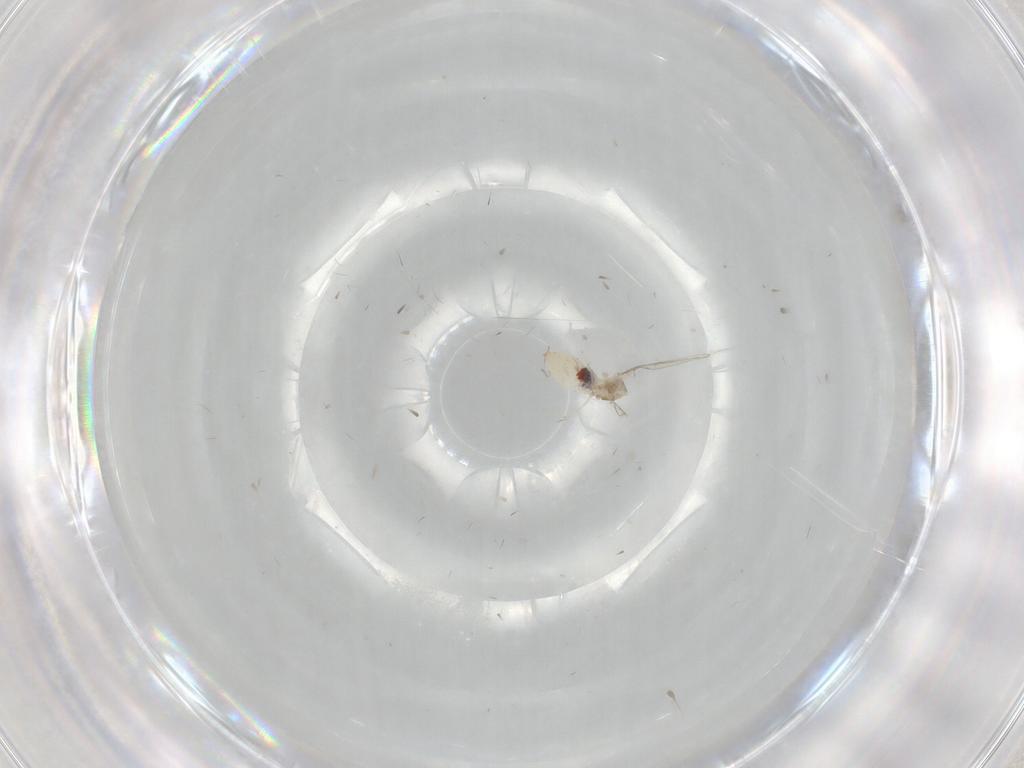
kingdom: Animalia
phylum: Arthropoda
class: Insecta
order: Diptera
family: Cecidomyiidae
